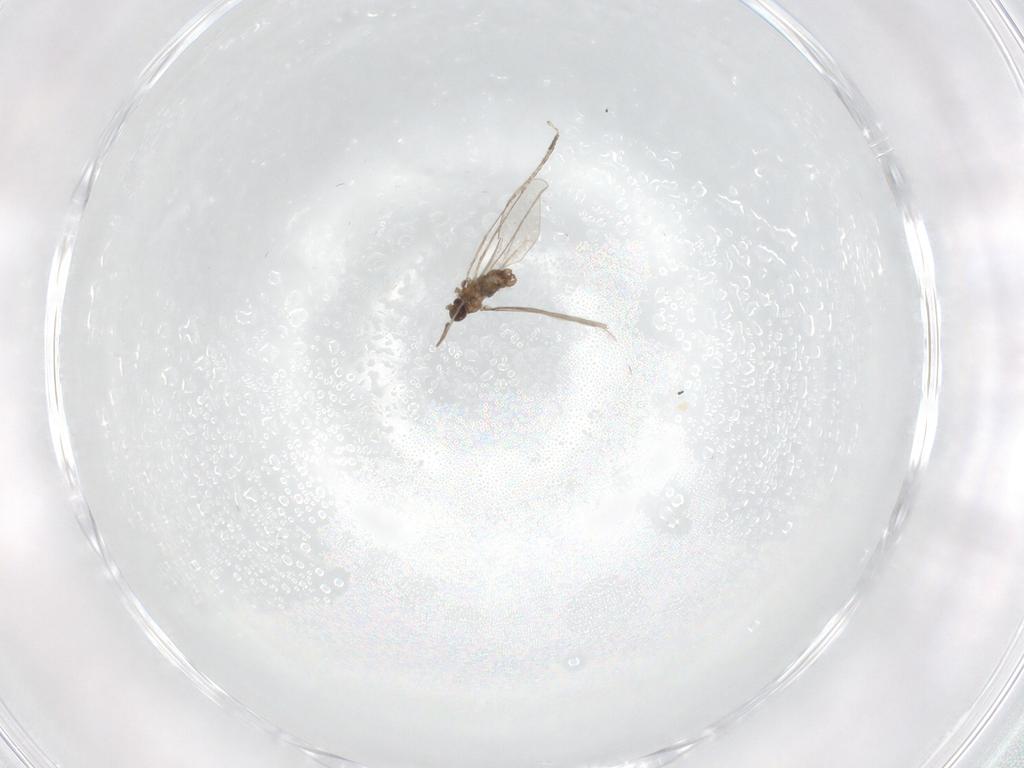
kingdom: Animalia
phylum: Arthropoda
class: Insecta
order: Diptera
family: Cecidomyiidae
